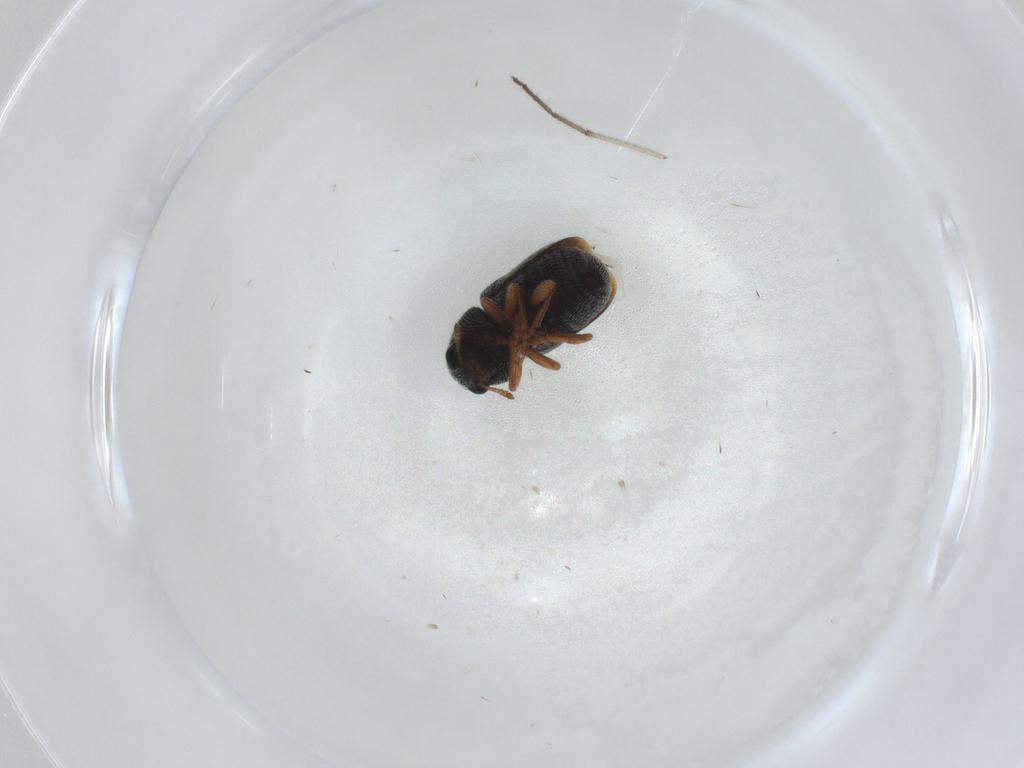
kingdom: Animalia
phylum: Arthropoda
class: Insecta
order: Coleoptera
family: Anthribidae
